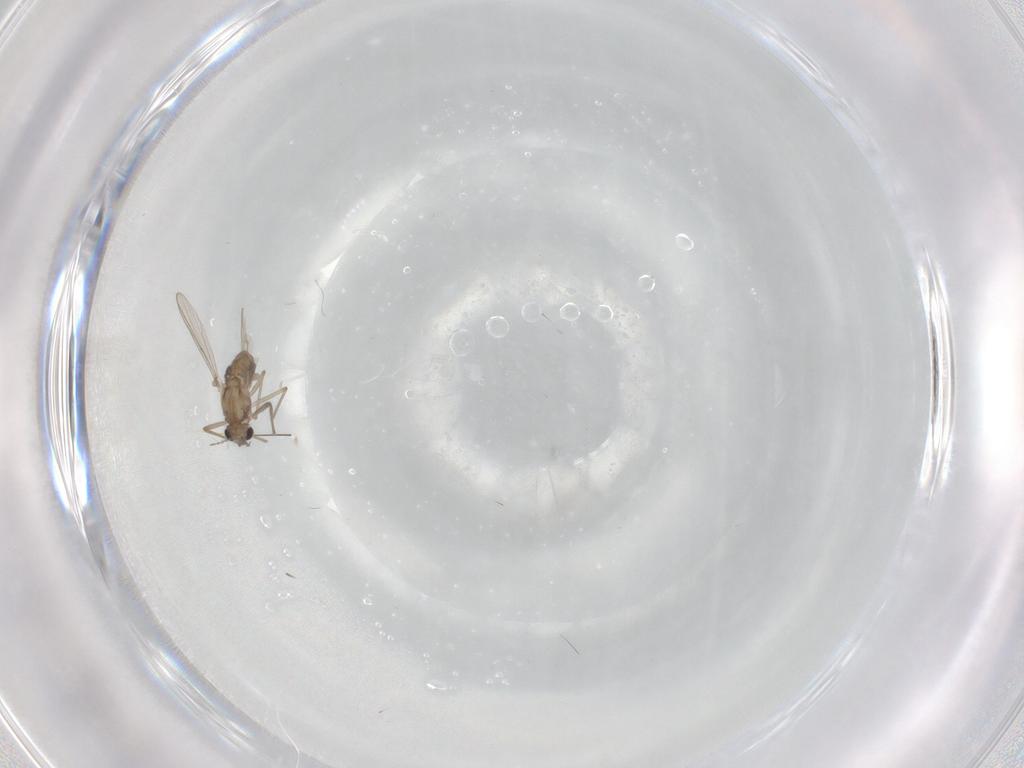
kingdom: Animalia
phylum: Arthropoda
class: Insecta
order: Diptera
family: Chironomidae
